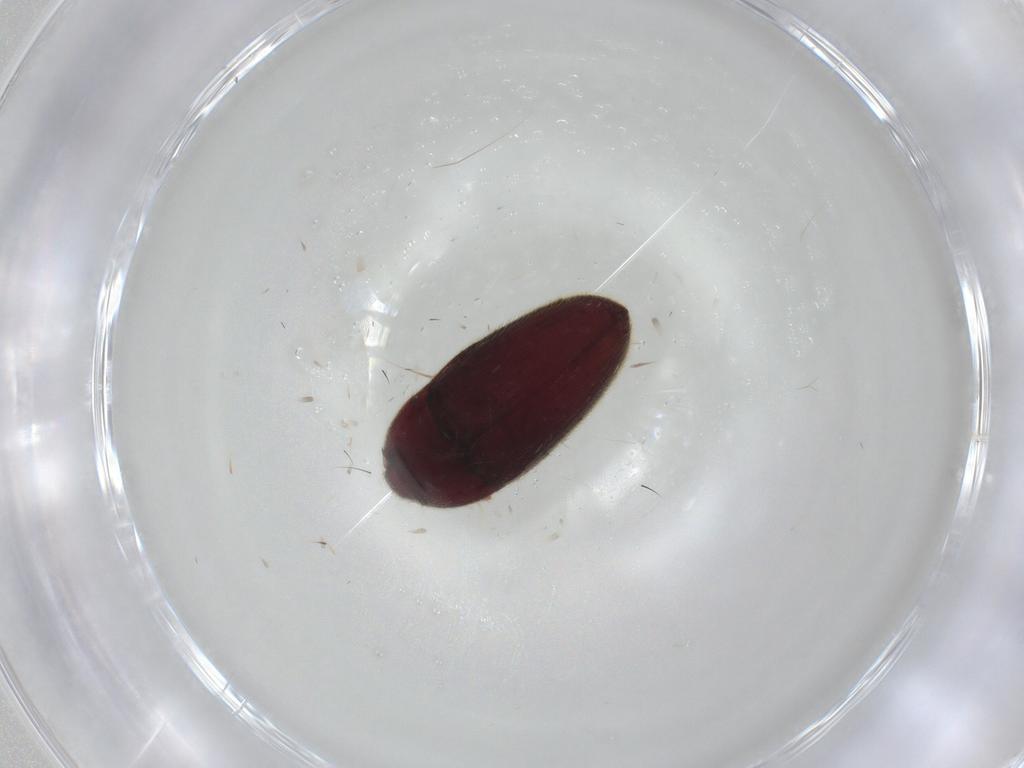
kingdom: Animalia
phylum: Arthropoda
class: Insecta
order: Coleoptera
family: Throscidae
